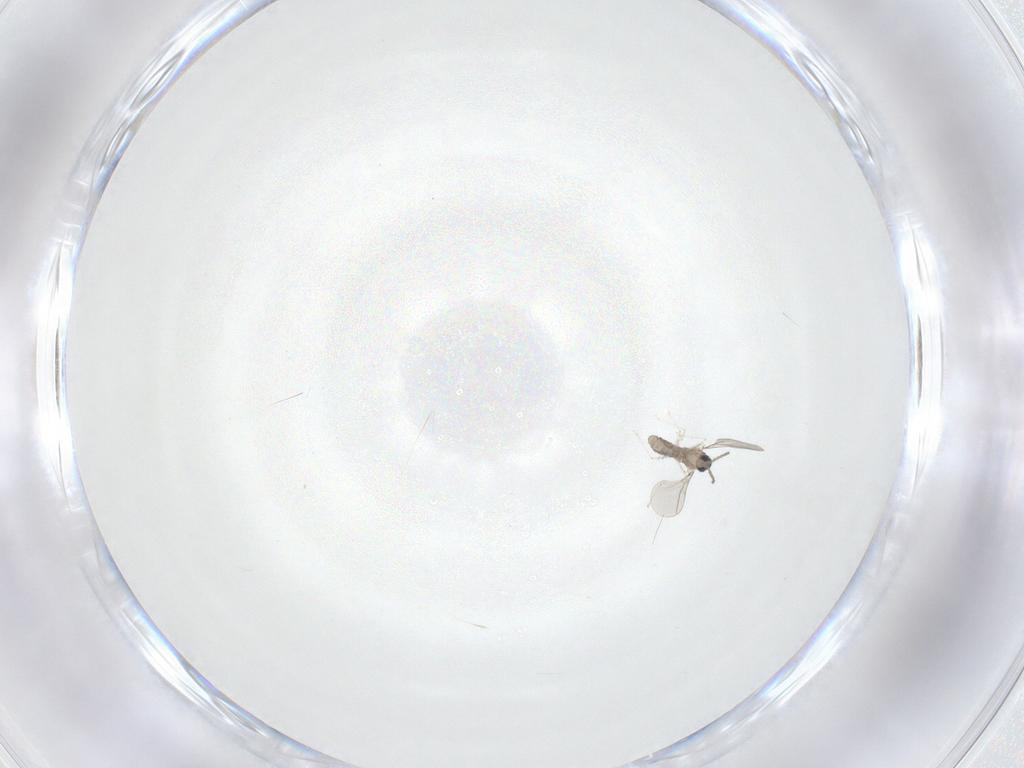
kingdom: Animalia
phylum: Arthropoda
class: Insecta
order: Diptera
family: Cecidomyiidae
